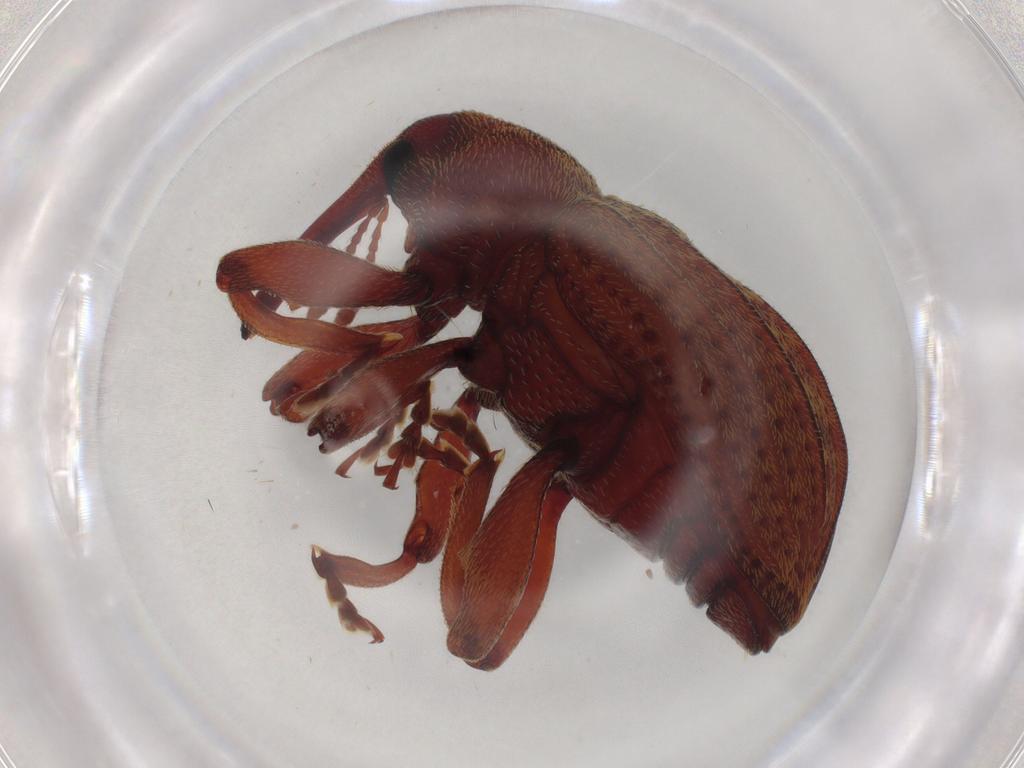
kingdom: Animalia
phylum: Arthropoda
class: Insecta
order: Coleoptera
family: Curculionidae
